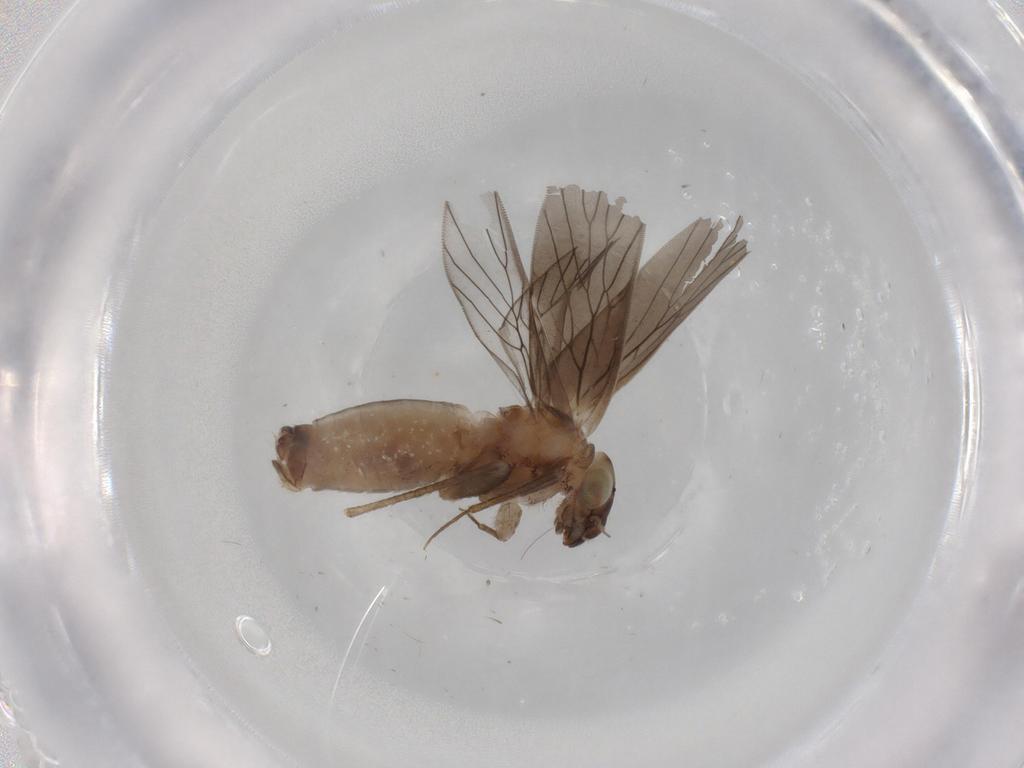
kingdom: Animalia
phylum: Arthropoda
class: Insecta
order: Psocodea
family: Lepidopsocidae
